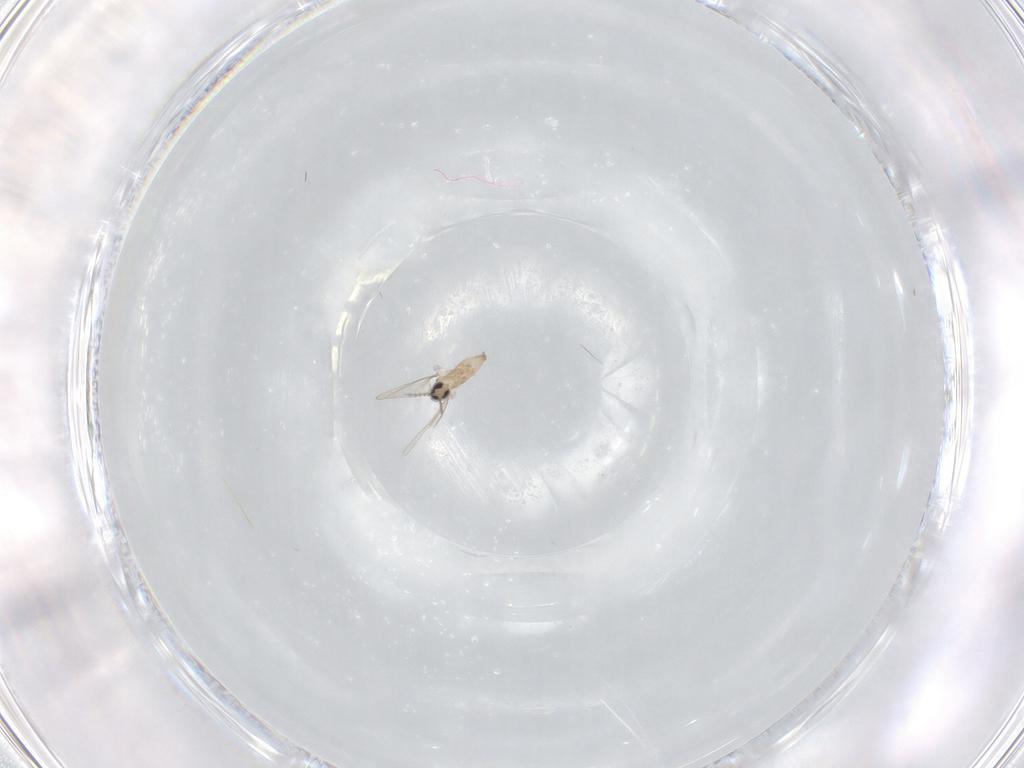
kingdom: Animalia
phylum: Arthropoda
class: Insecta
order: Diptera
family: Cecidomyiidae
